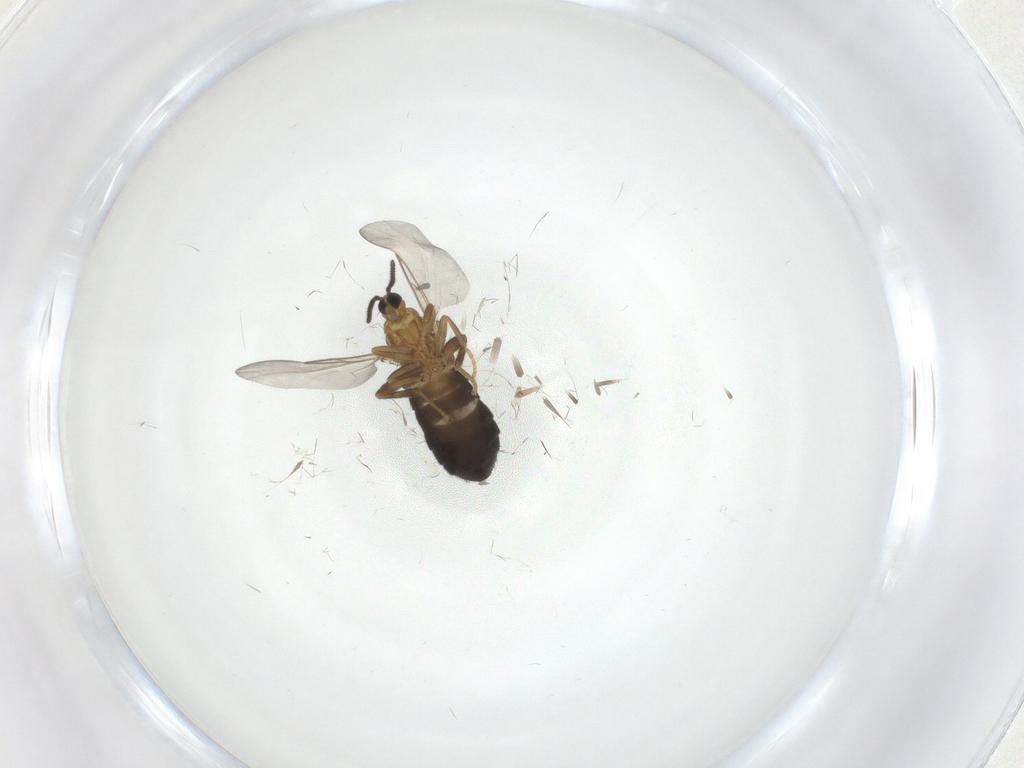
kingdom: Animalia
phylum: Arthropoda
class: Insecta
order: Diptera
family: Scatopsidae
